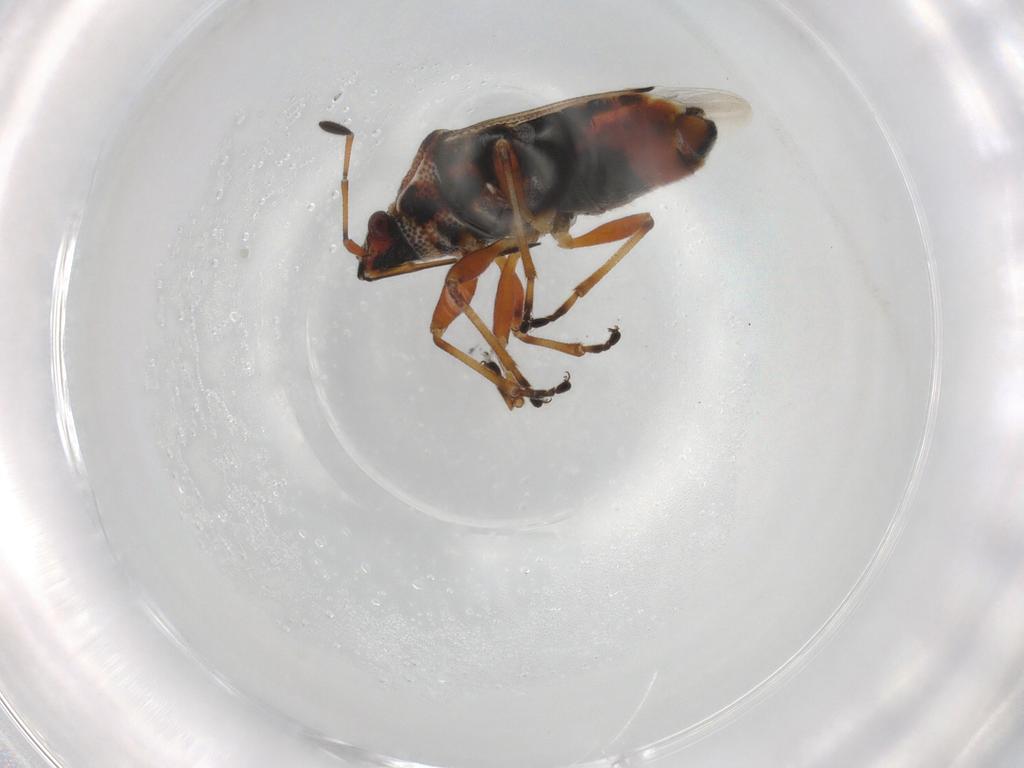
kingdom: Animalia
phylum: Arthropoda
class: Insecta
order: Hemiptera
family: Lygaeidae
